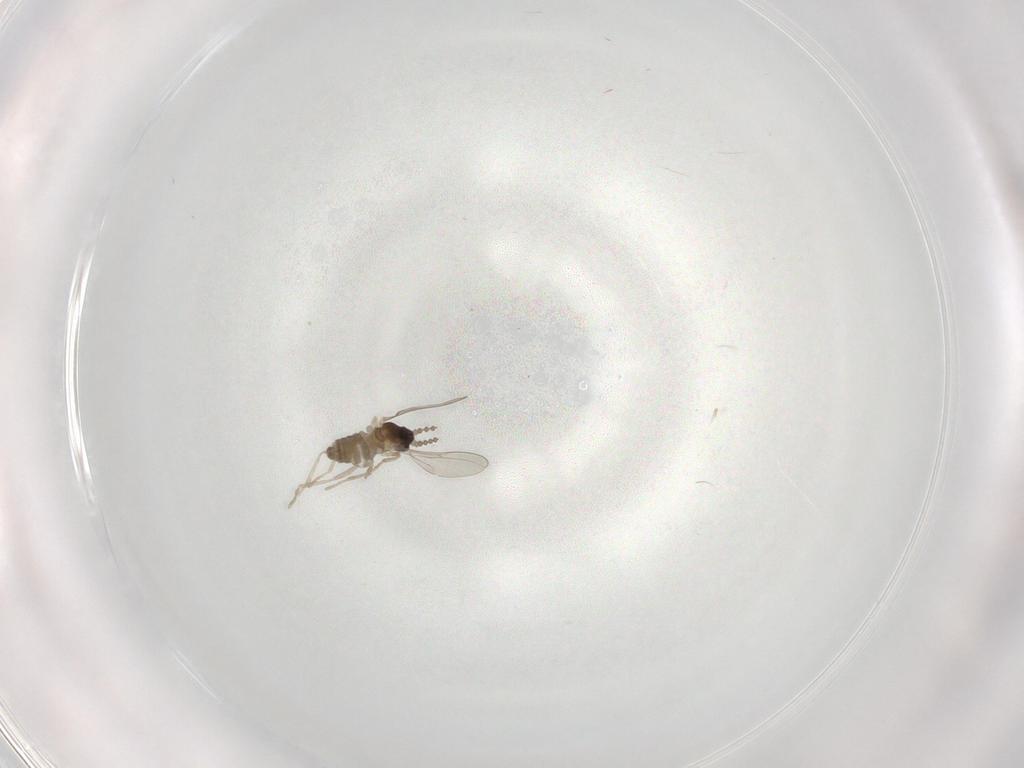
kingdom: Animalia
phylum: Arthropoda
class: Insecta
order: Diptera
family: Cecidomyiidae
